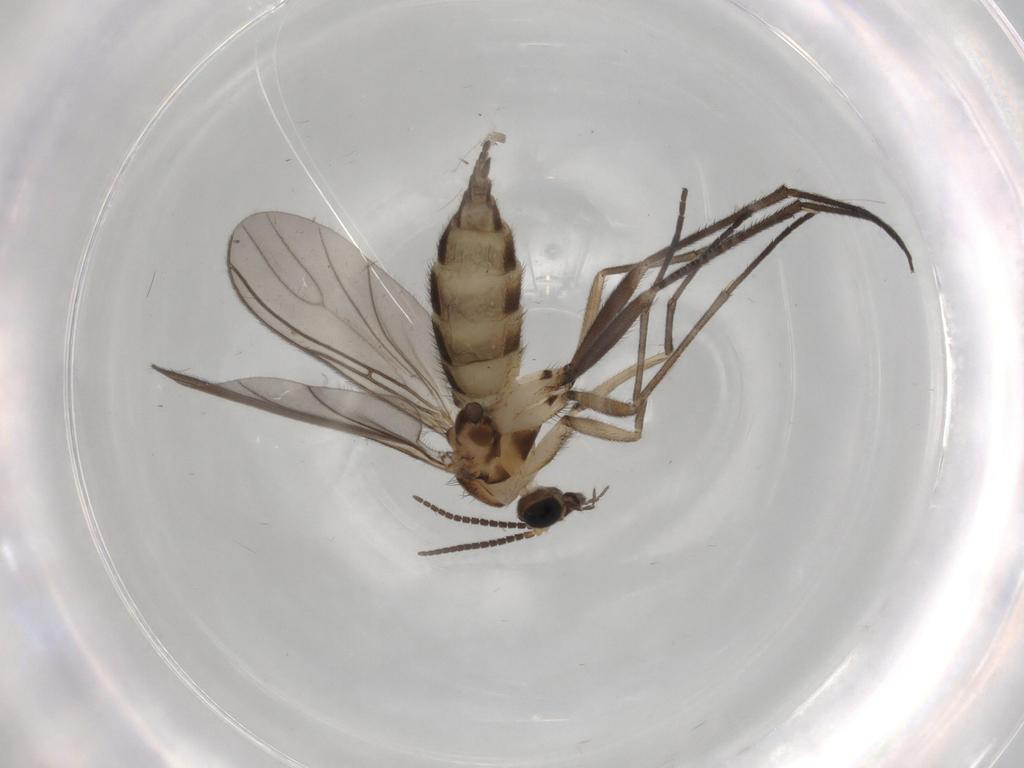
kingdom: Animalia
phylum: Arthropoda
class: Insecta
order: Diptera
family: Sciaridae
